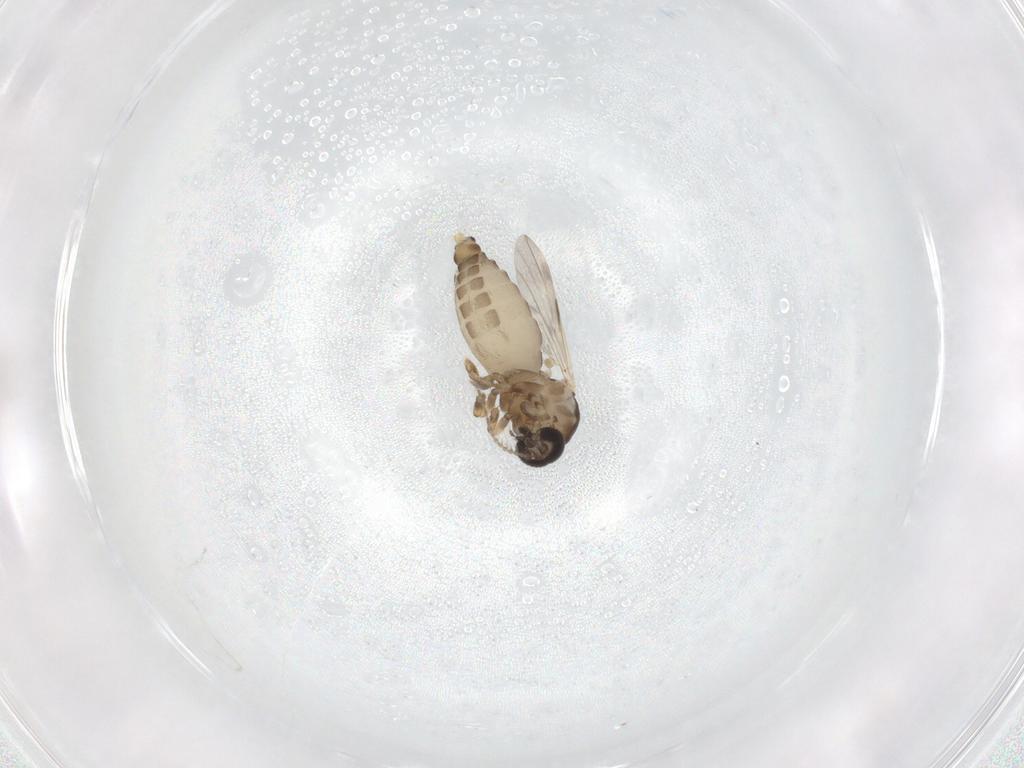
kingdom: Animalia
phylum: Arthropoda
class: Insecta
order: Diptera
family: Ceratopogonidae
